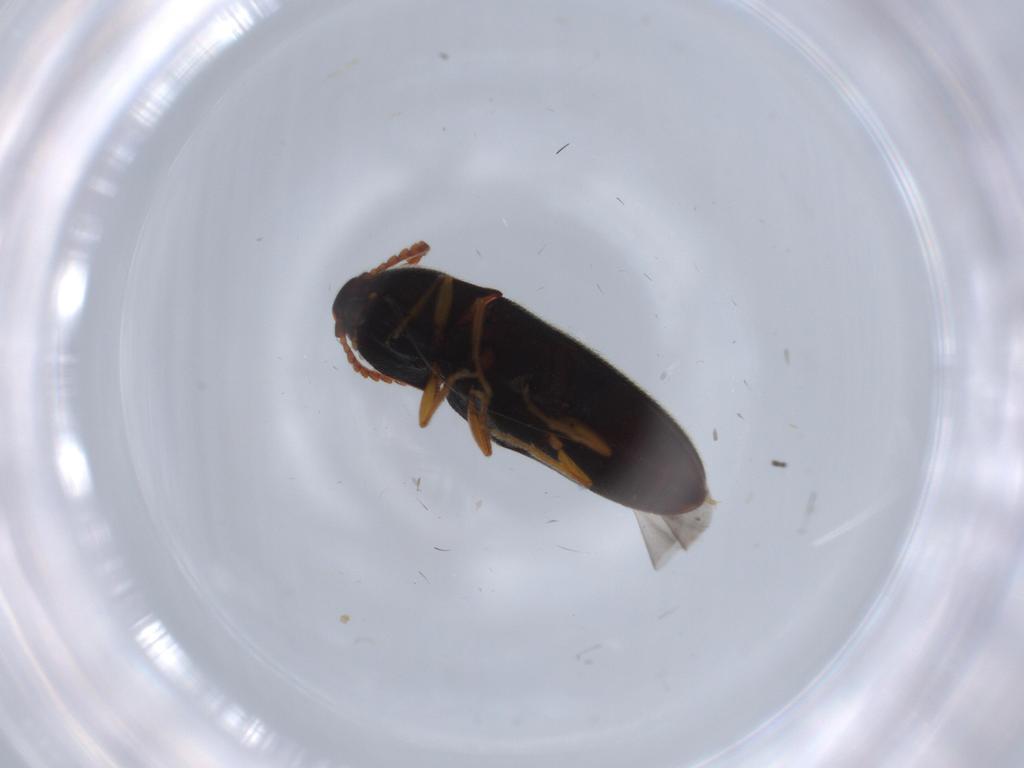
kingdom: Animalia
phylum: Arthropoda
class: Insecta
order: Coleoptera
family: Elateridae
